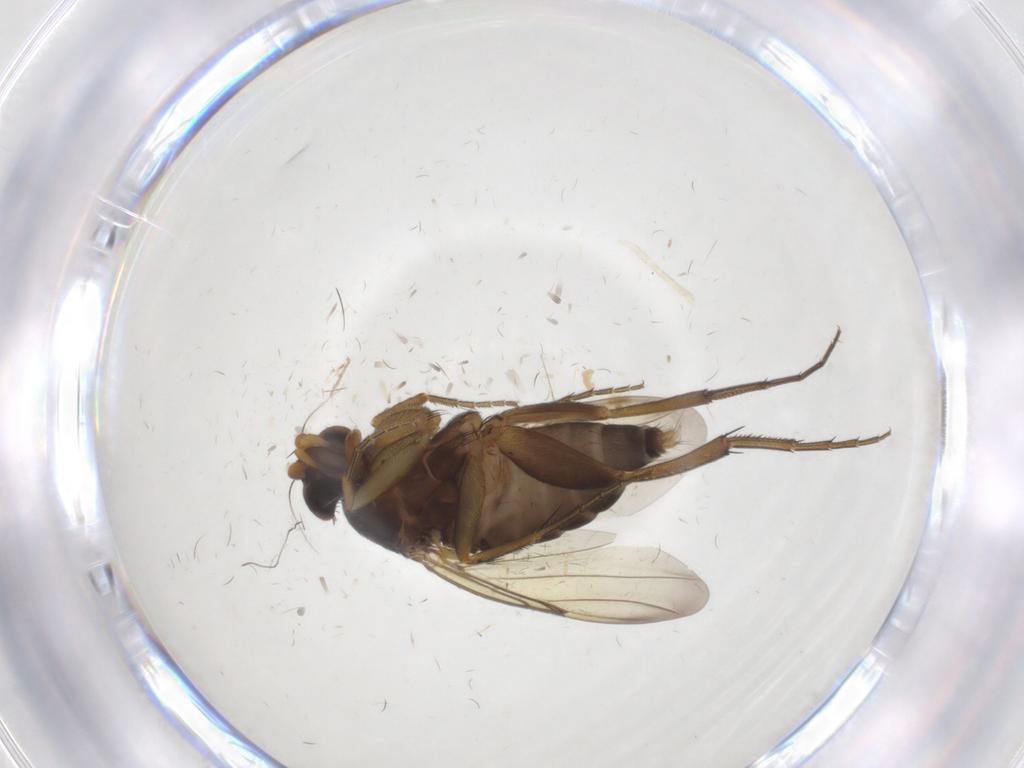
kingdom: Animalia
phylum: Arthropoda
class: Insecta
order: Diptera
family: Phoridae
